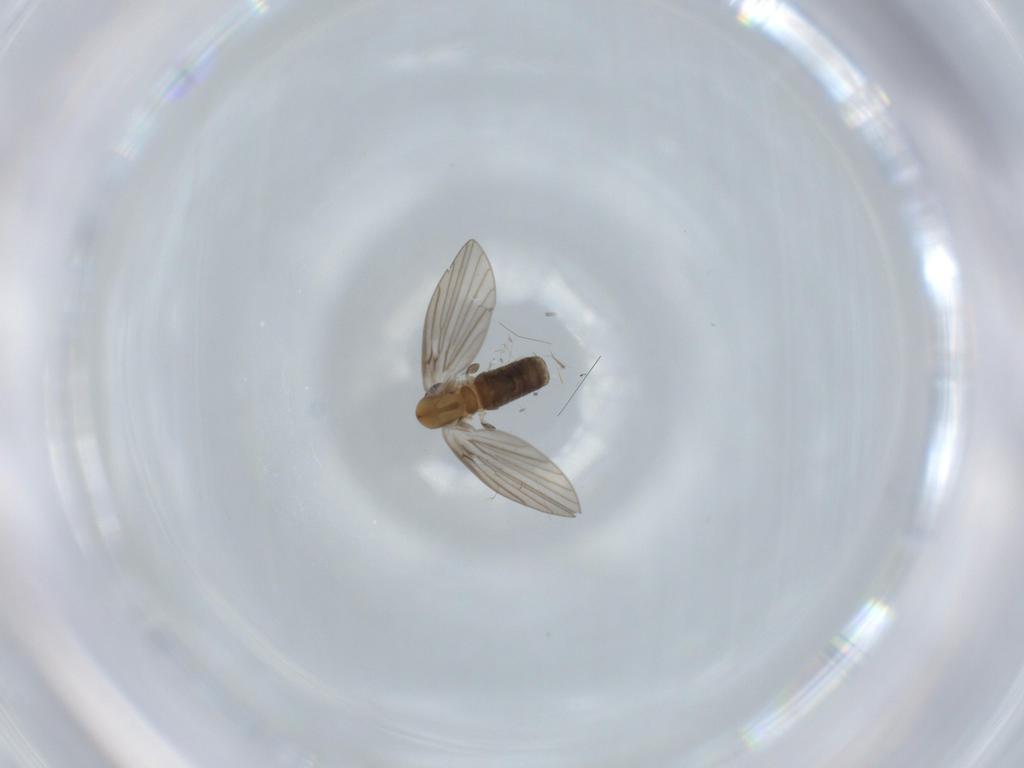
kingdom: Animalia
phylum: Arthropoda
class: Insecta
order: Diptera
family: Psychodidae
